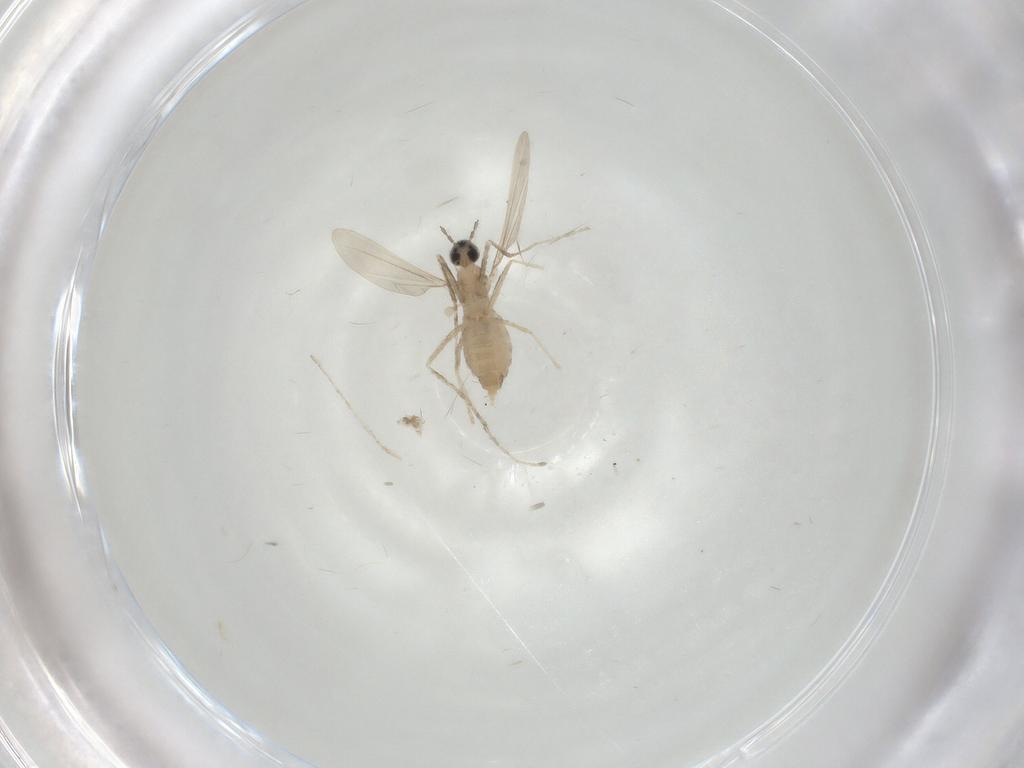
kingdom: Animalia
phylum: Arthropoda
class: Insecta
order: Diptera
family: Cecidomyiidae
